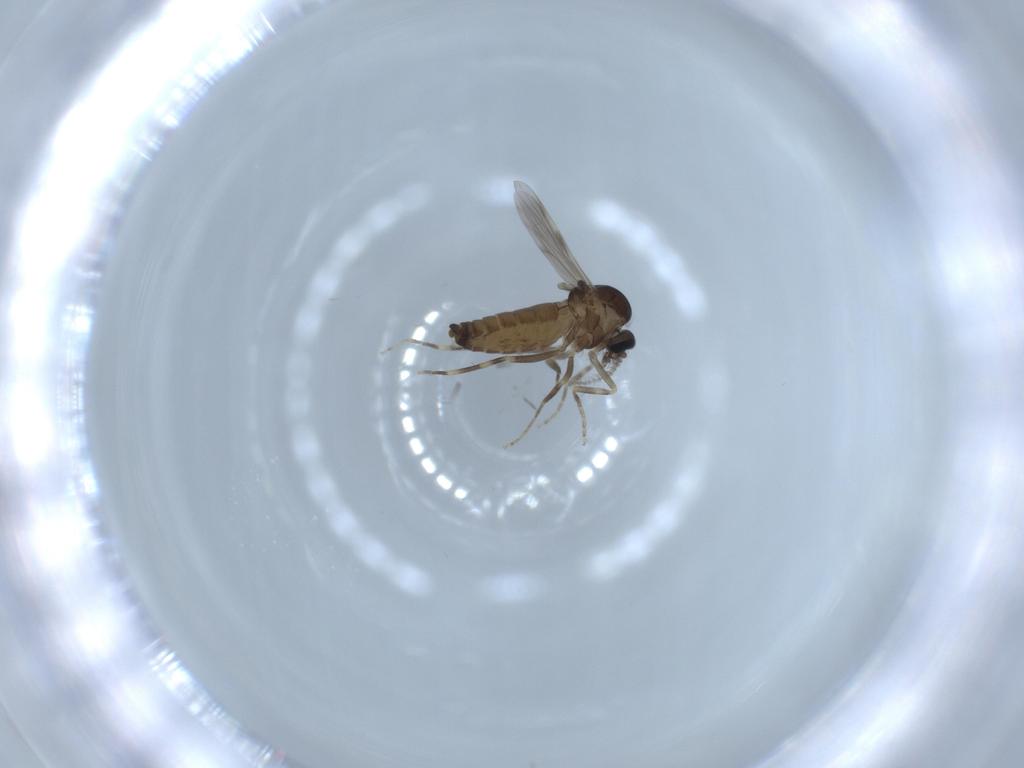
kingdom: Animalia
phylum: Arthropoda
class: Insecta
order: Diptera
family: Ceratopogonidae
